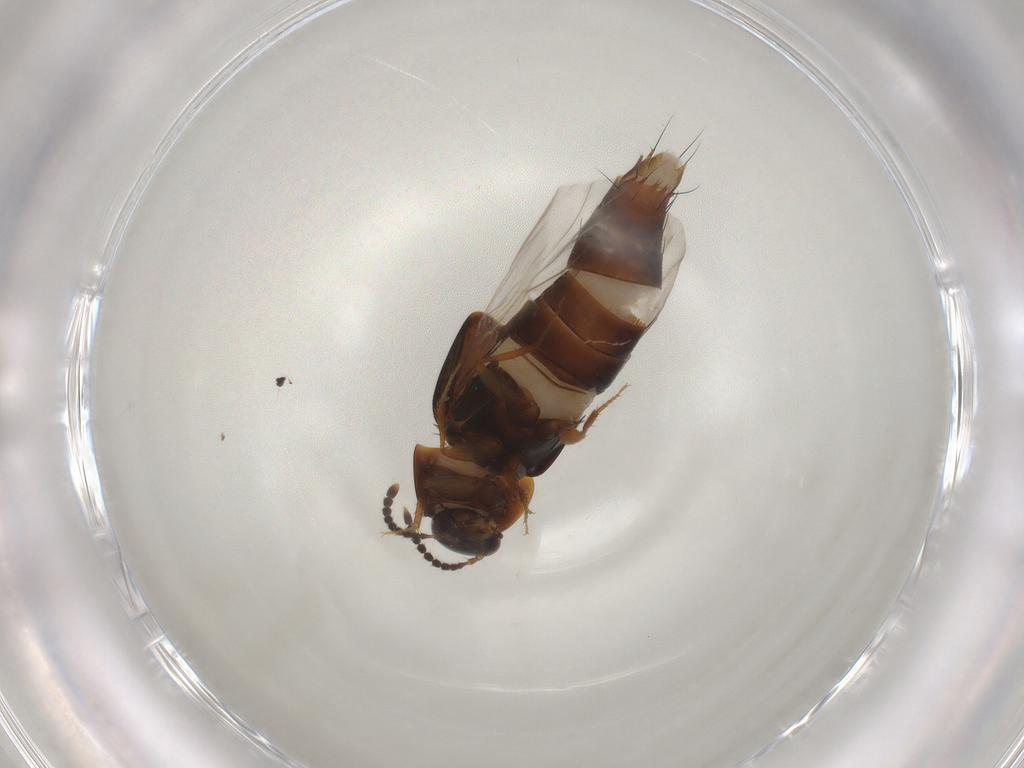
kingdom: Animalia
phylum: Arthropoda
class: Insecta
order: Coleoptera
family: Staphylinidae
